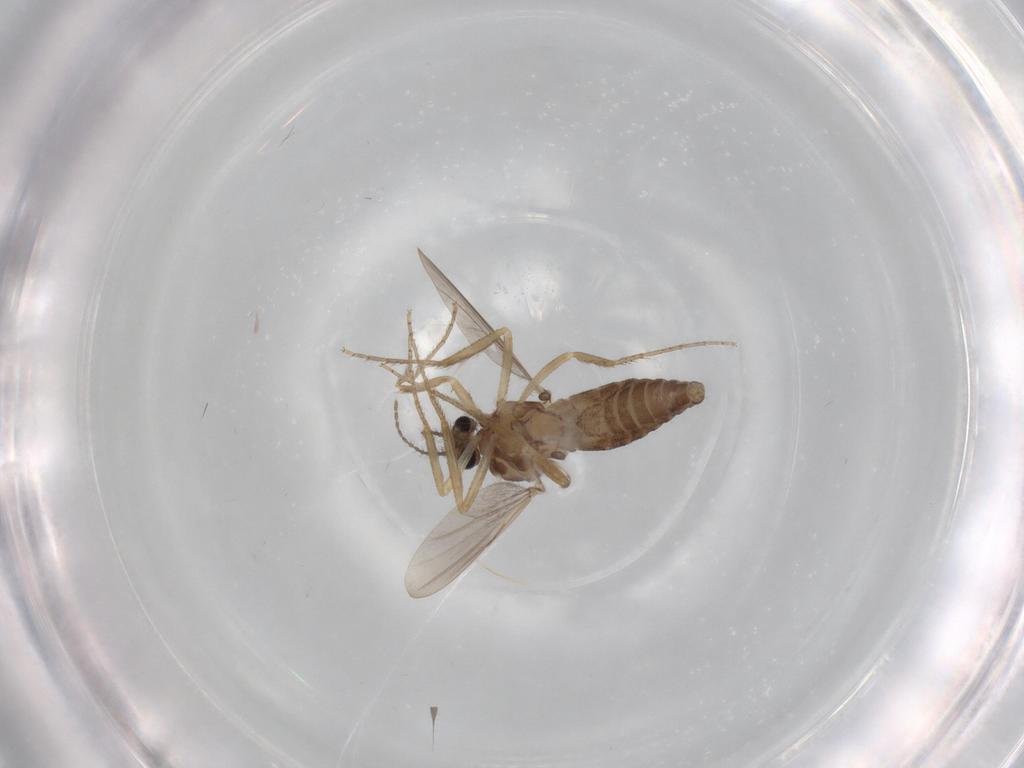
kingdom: Animalia
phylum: Arthropoda
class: Insecta
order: Diptera
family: Ceratopogonidae
